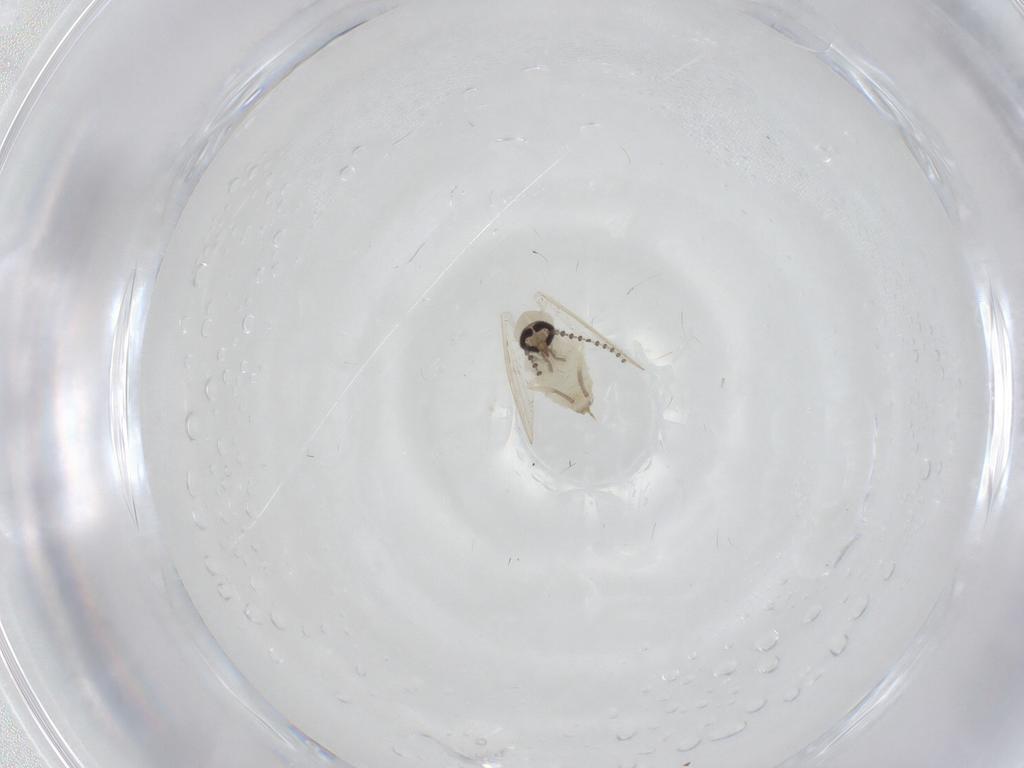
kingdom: Animalia
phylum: Arthropoda
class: Insecta
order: Diptera
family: Psychodidae
